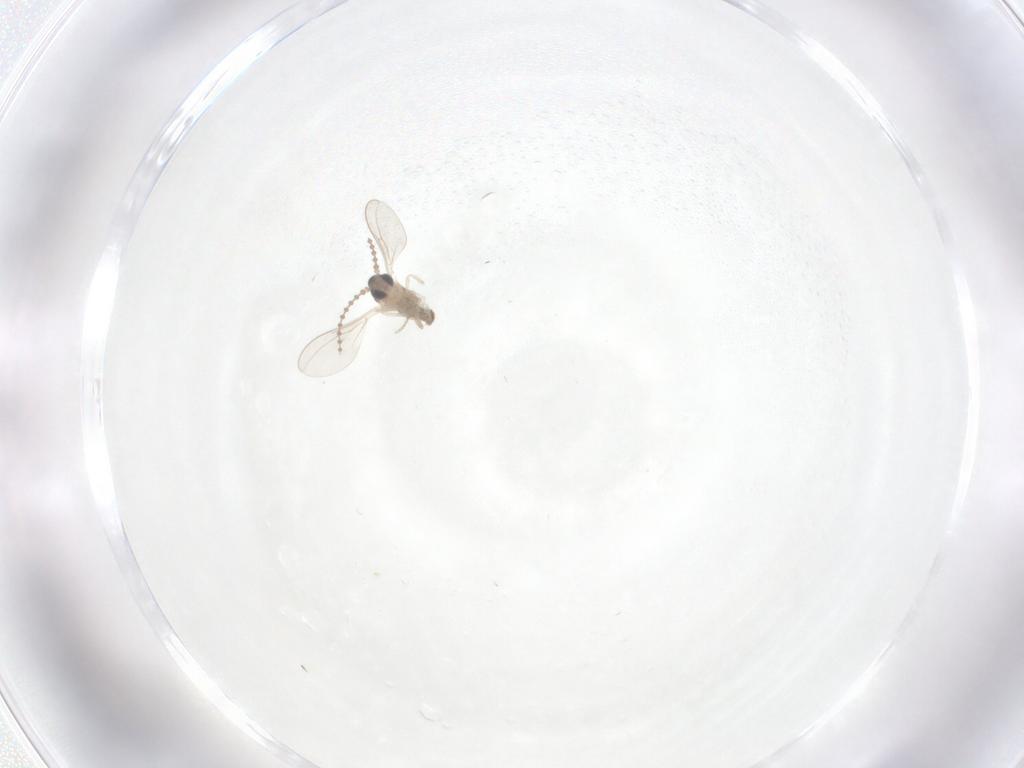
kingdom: Animalia
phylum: Arthropoda
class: Insecta
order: Diptera
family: Cecidomyiidae
